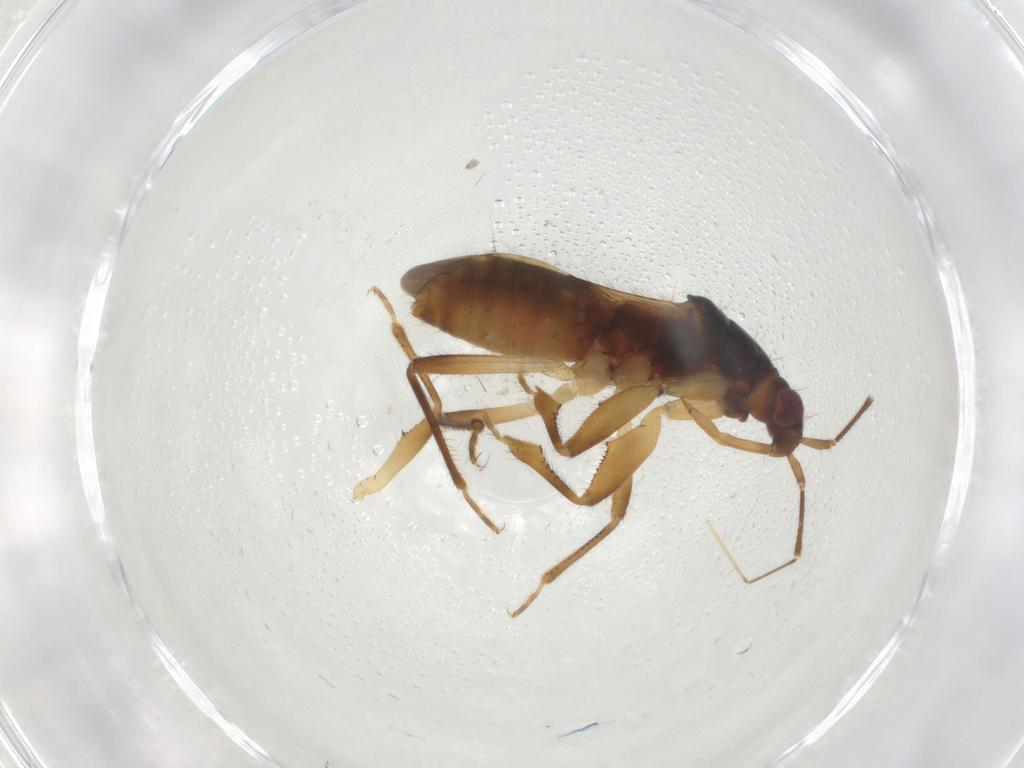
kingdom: Animalia
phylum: Arthropoda
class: Insecta
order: Hemiptera
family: Nabidae
